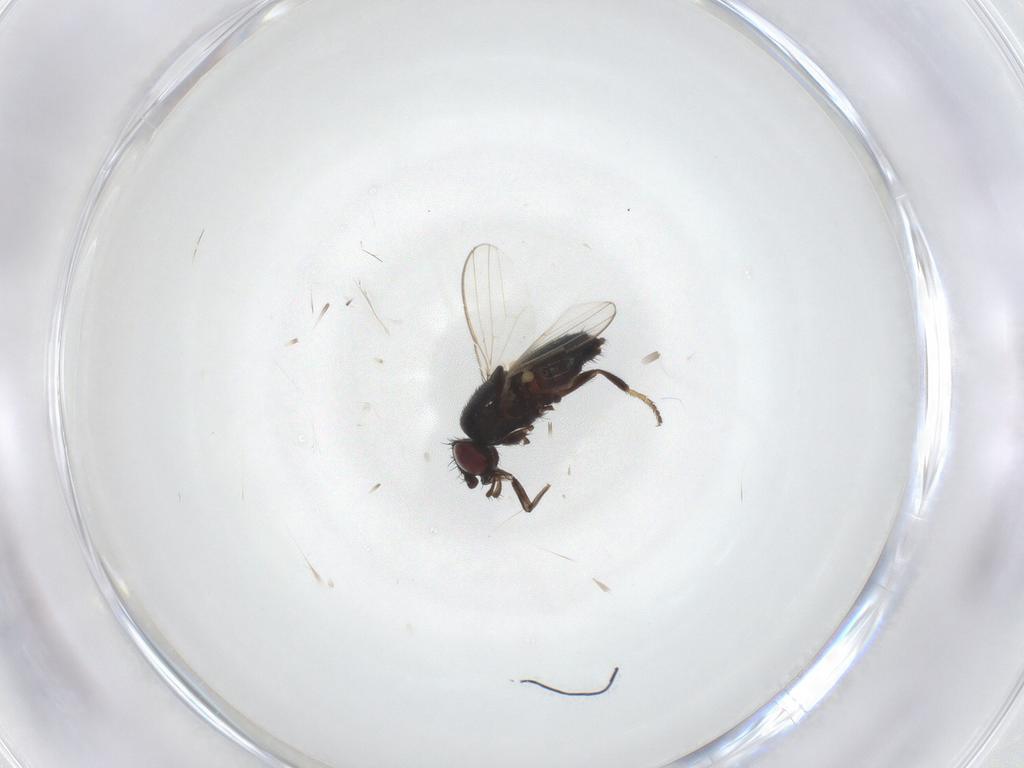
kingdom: Animalia
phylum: Arthropoda
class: Insecta
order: Diptera
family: Milichiidae
